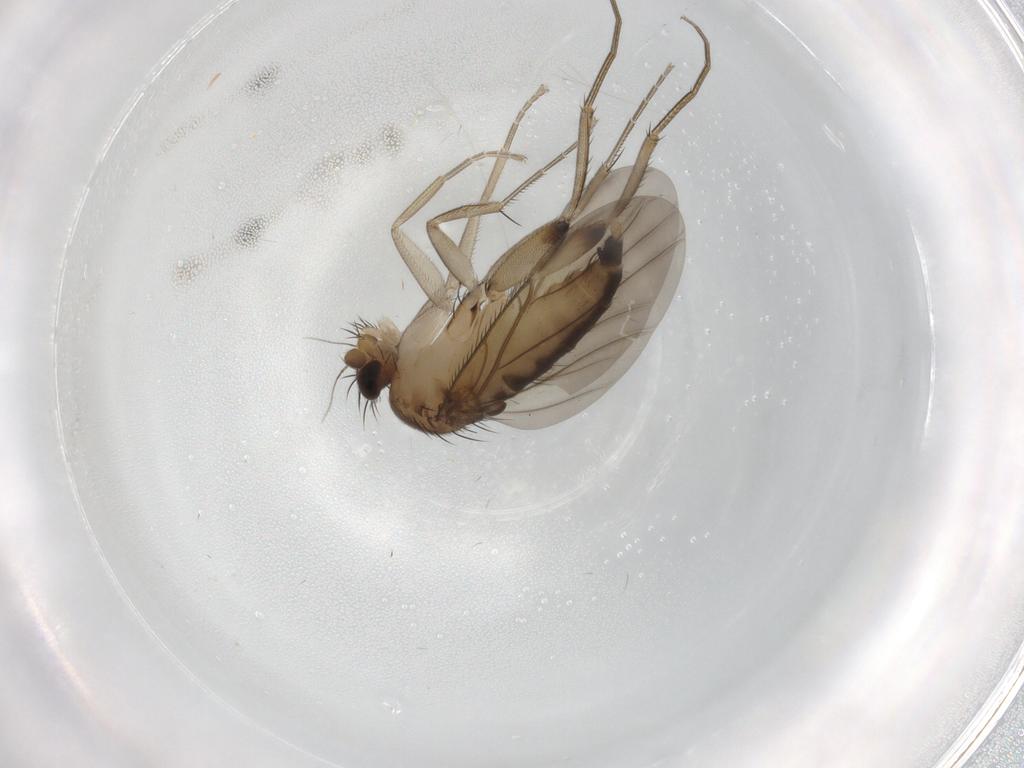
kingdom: Animalia
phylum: Arthropoda
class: Insecta
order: Diptera
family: Phoridae
